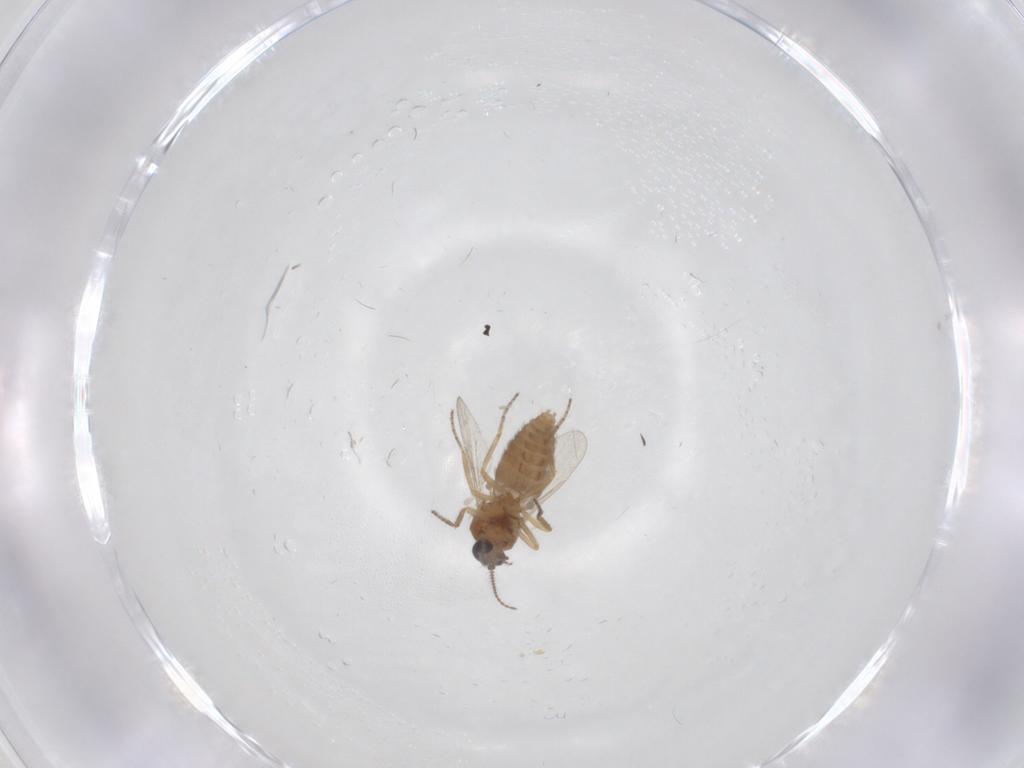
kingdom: Animalia
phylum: Arthropoda
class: Insecta
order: Diptera
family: Ceratopogonidae
